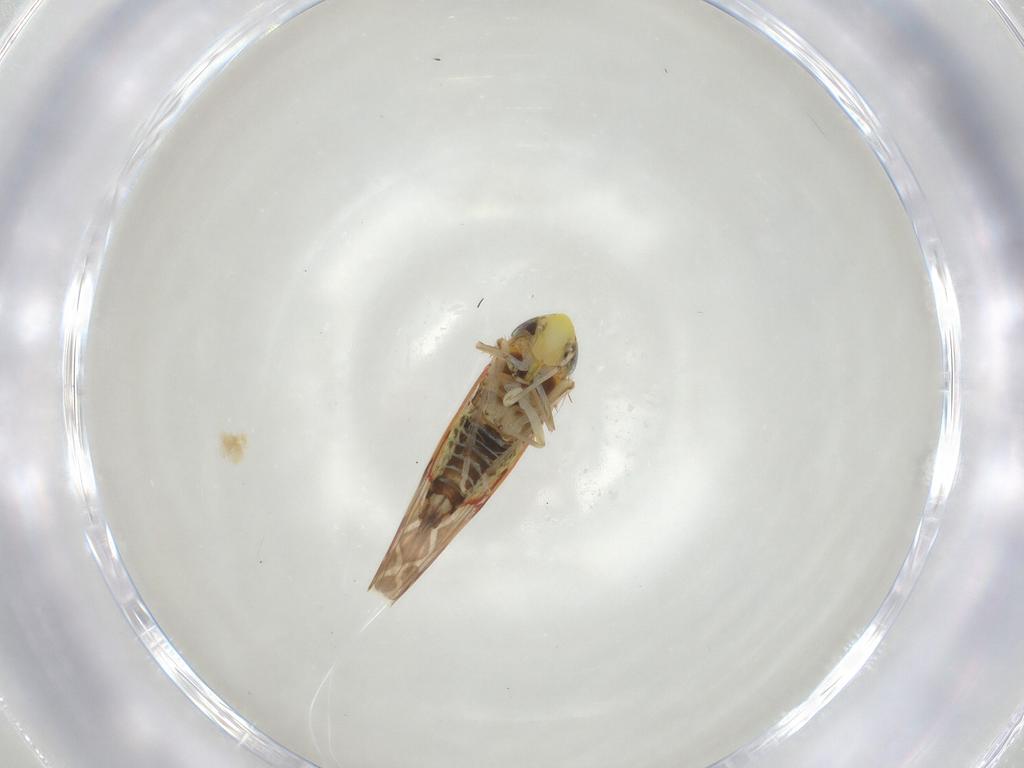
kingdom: Animalia
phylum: Arthropoda
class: Insecta
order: Hemiptera
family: Cicadellidae
